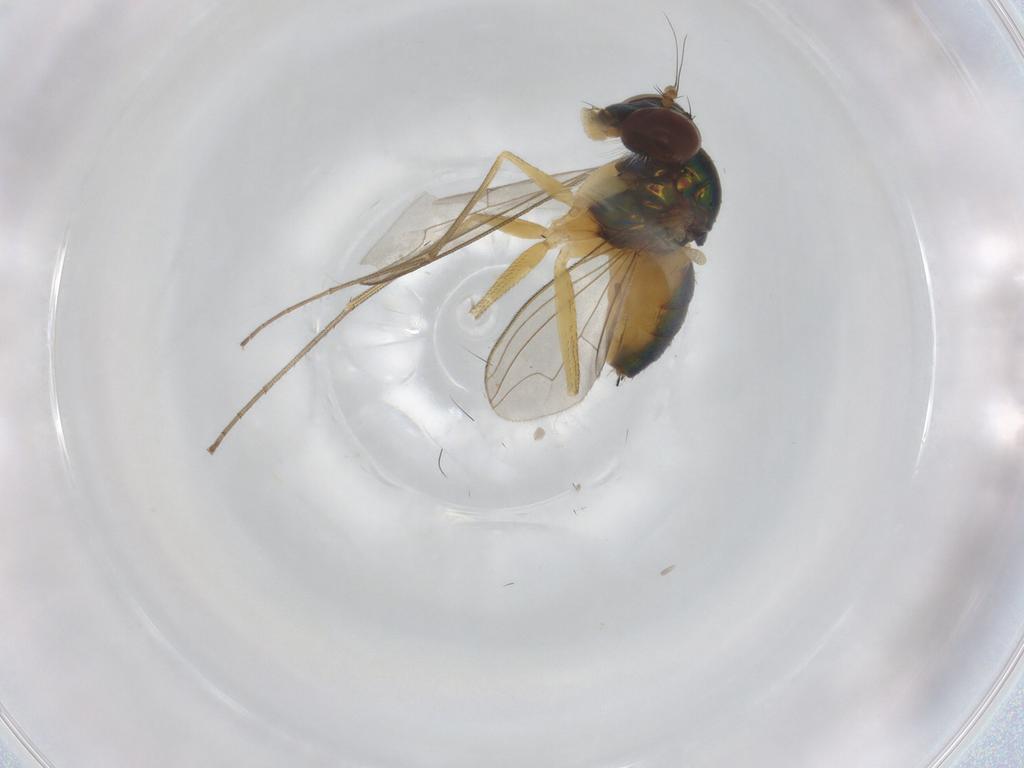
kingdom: Animalia
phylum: Arthropoda
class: Insecta
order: Diptera
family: Dolichopodidae
